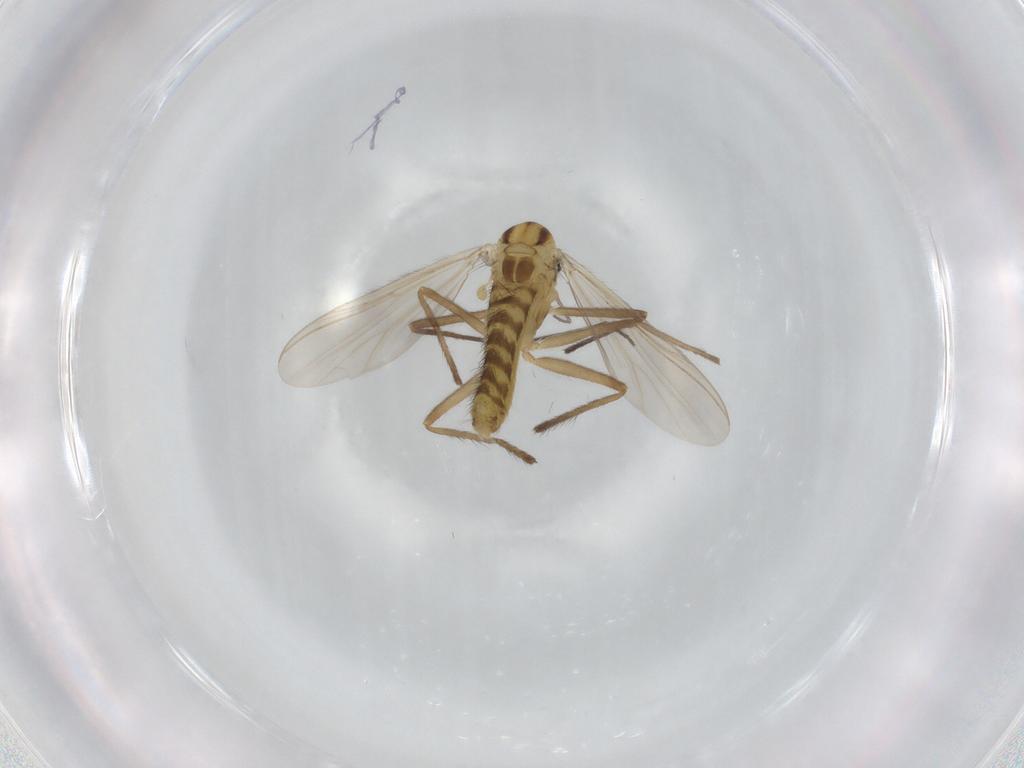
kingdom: Animalia
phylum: Arthropoda
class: Insecta
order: Diptera
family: Chironomidae
